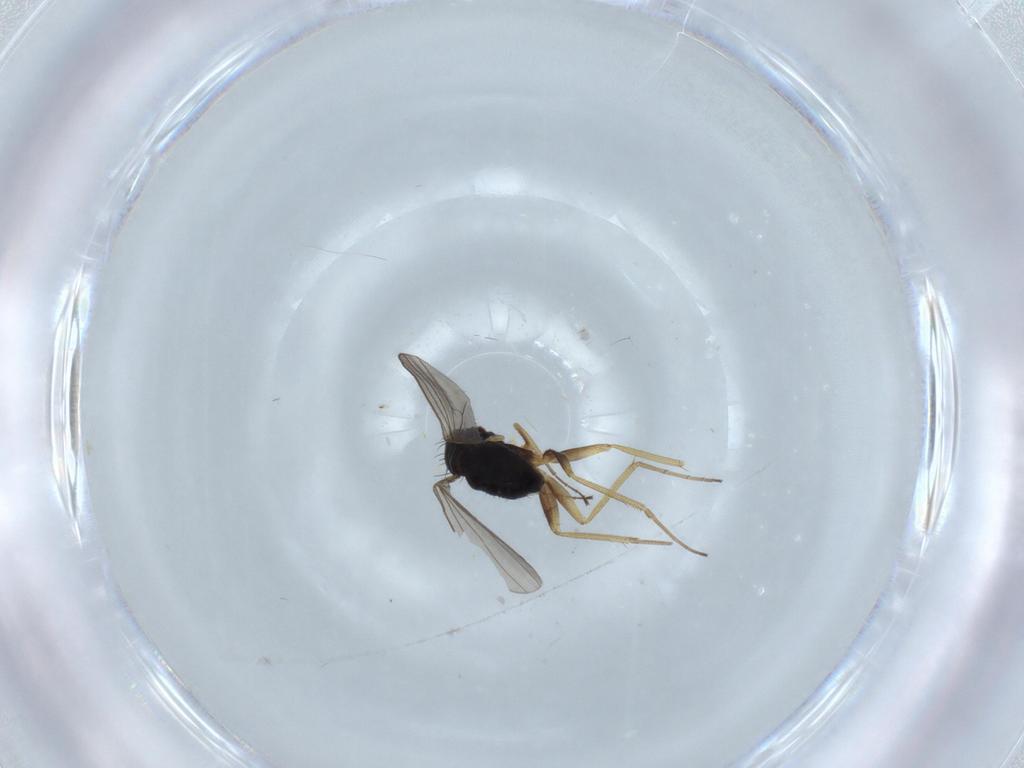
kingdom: Animalia
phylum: Arthropoda
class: Insecta
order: Diptera
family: Dolichopodidae
